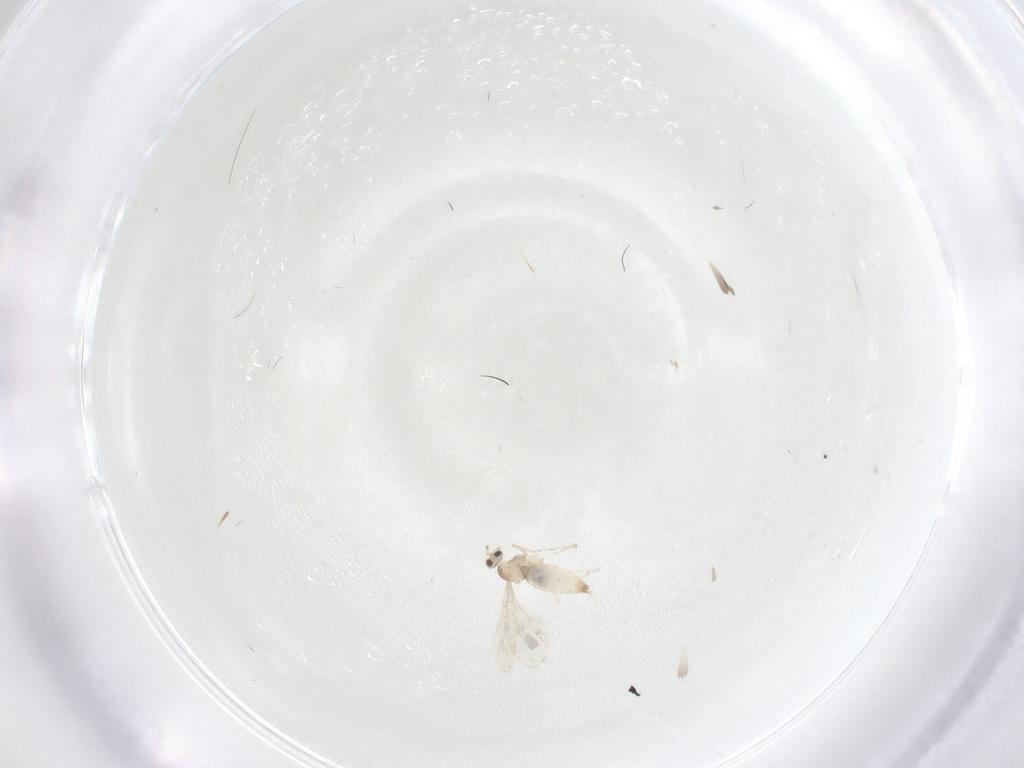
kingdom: Animalia
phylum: Arthropoda
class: Insecta
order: Diptera
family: Cecidomyiidae
